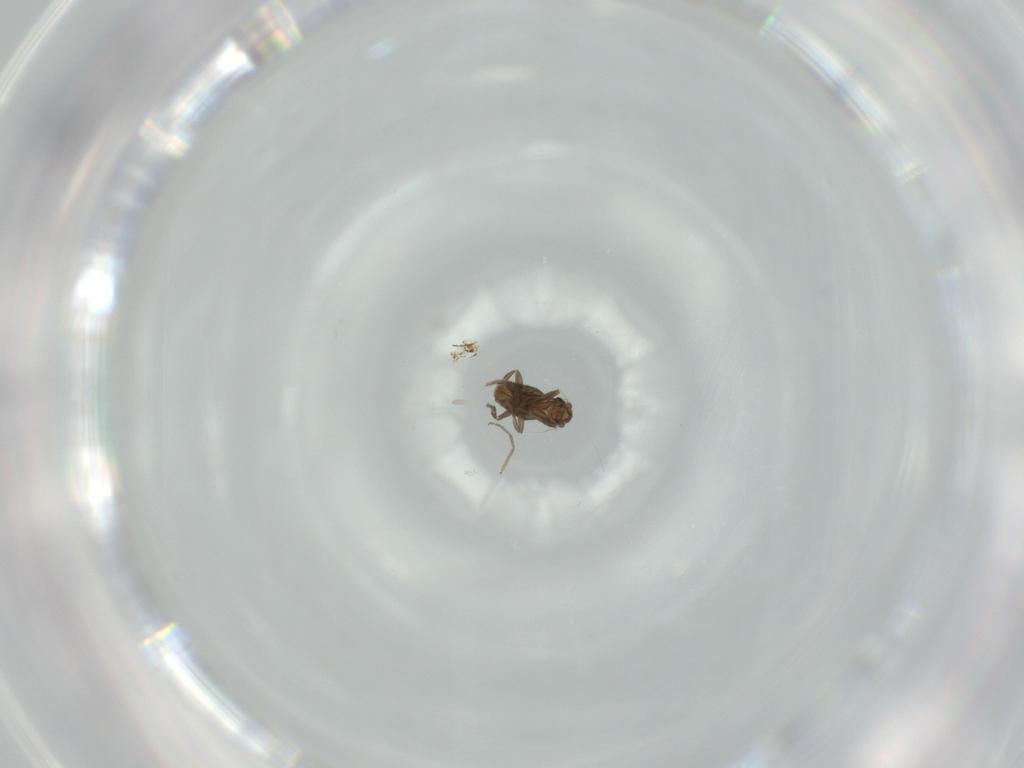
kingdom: Animalia
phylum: Arthropoda
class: Insecta
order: Diptera
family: Phoridae
